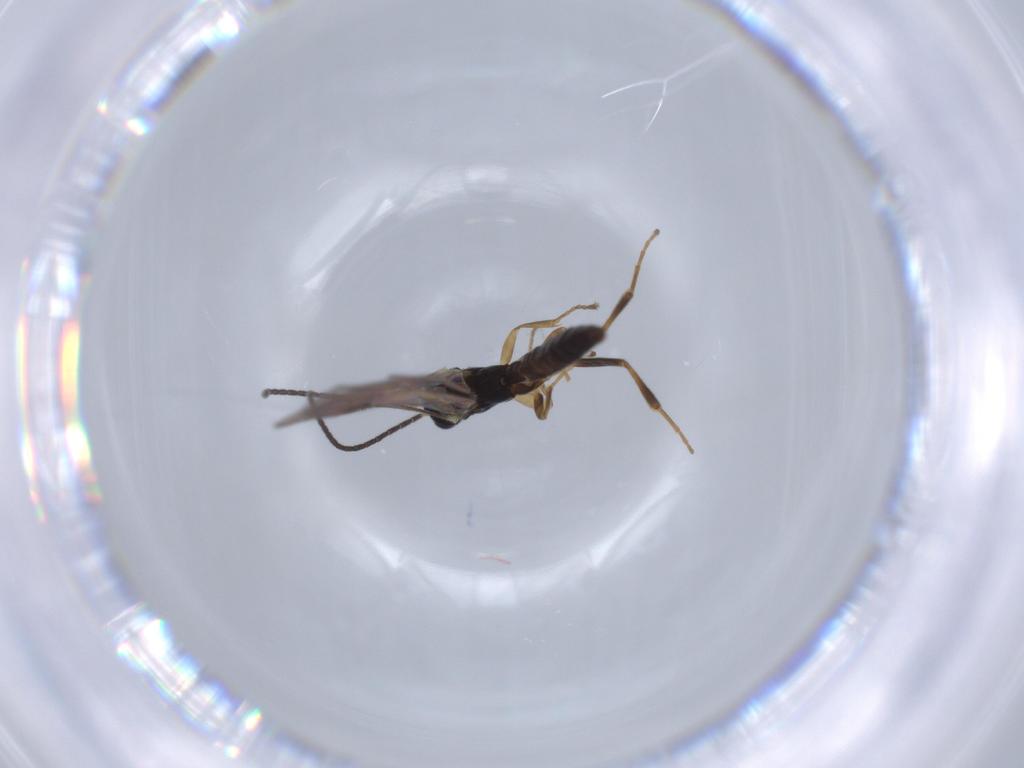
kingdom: Animalia
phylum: Arthropoda
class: Insecta
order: Hymenoptera
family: Ichneumonidae
